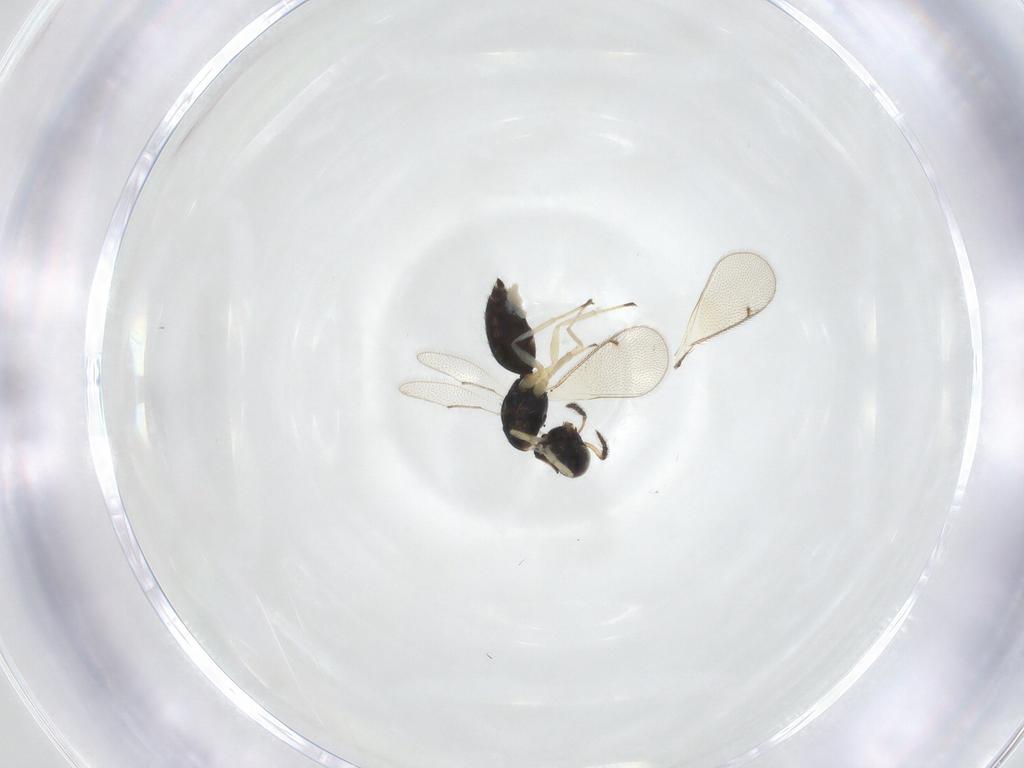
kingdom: Animalia
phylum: Arthropoda
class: Insecta
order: Hymenoptera
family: Eulophidae
